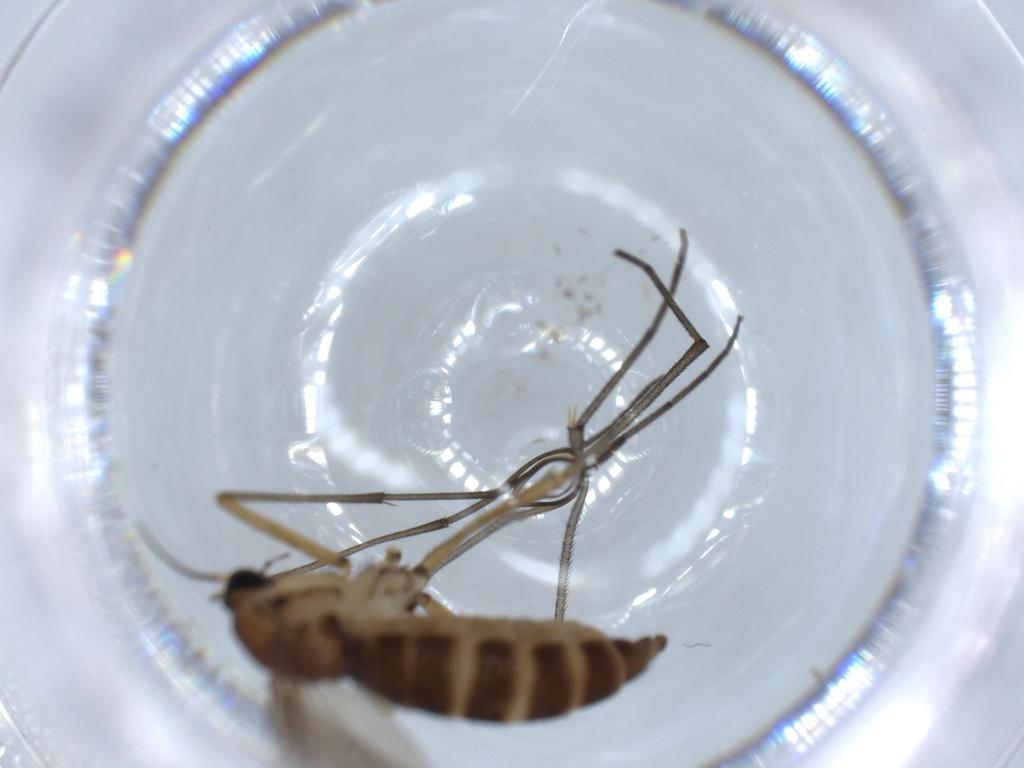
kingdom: Animalia
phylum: Arthropoda
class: Insecta
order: Diptera
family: Sciaridae
